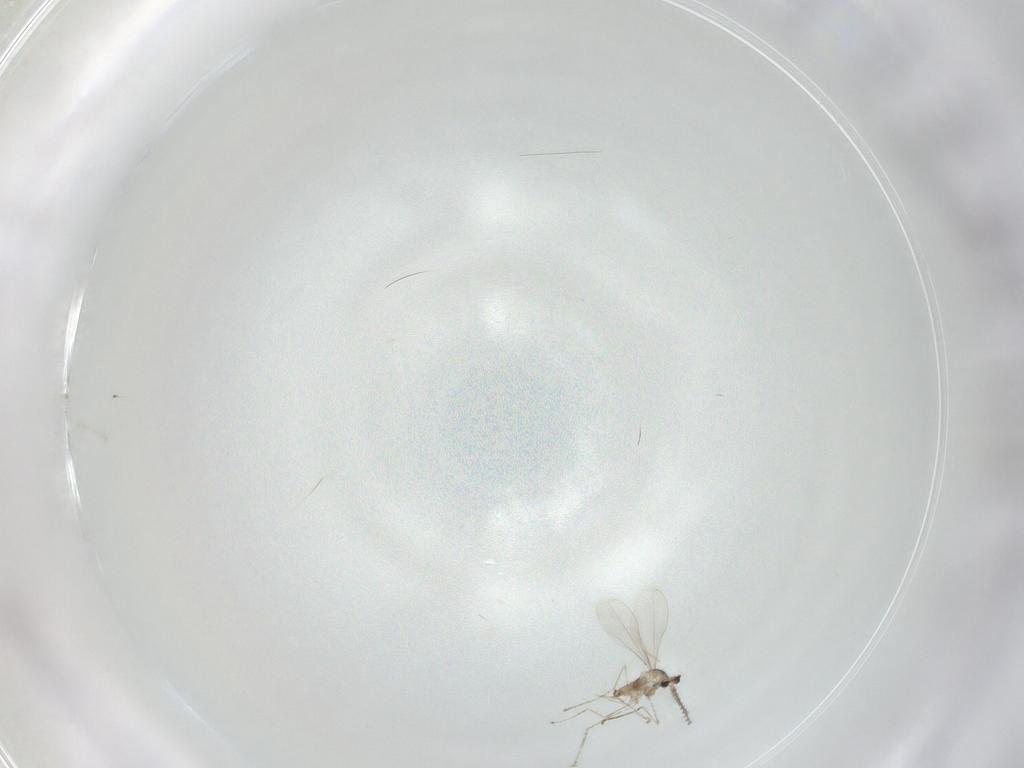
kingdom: Animalia
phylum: Arthropoda
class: Insecta
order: Diptera
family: Cecidomyiidae
